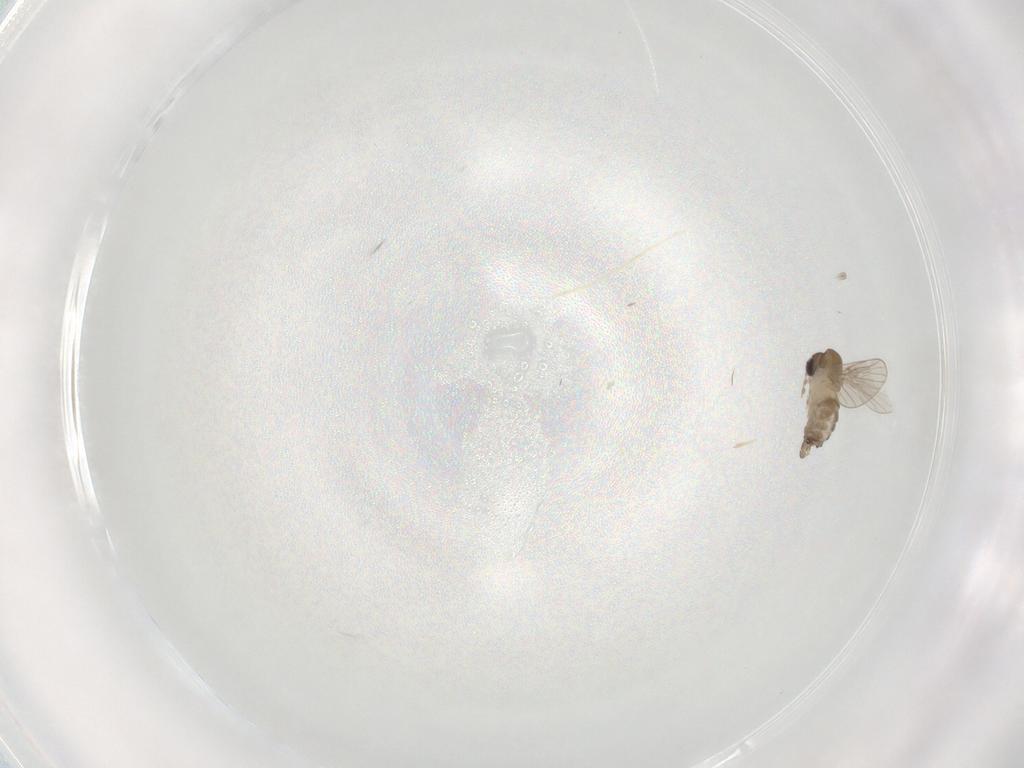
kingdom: Animalia
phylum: Arthropoda
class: Insecta
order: Diptera
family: Psychodidae
